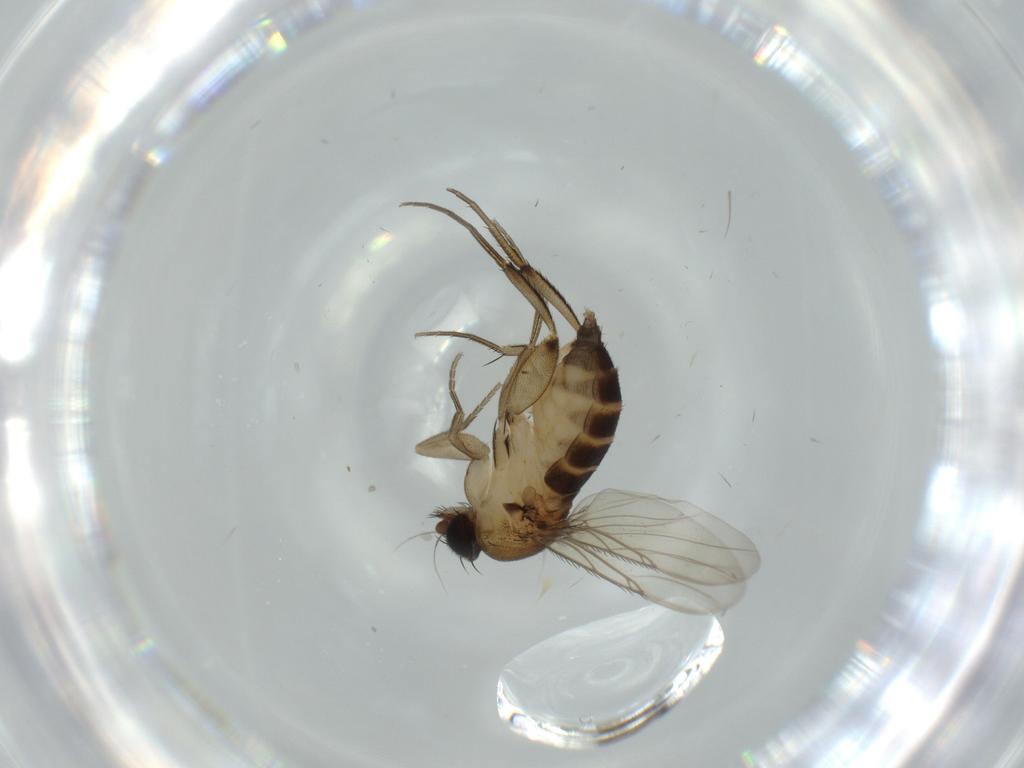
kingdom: Animalia
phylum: Arthropoda
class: Insecta
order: Diptera
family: Phoridae
